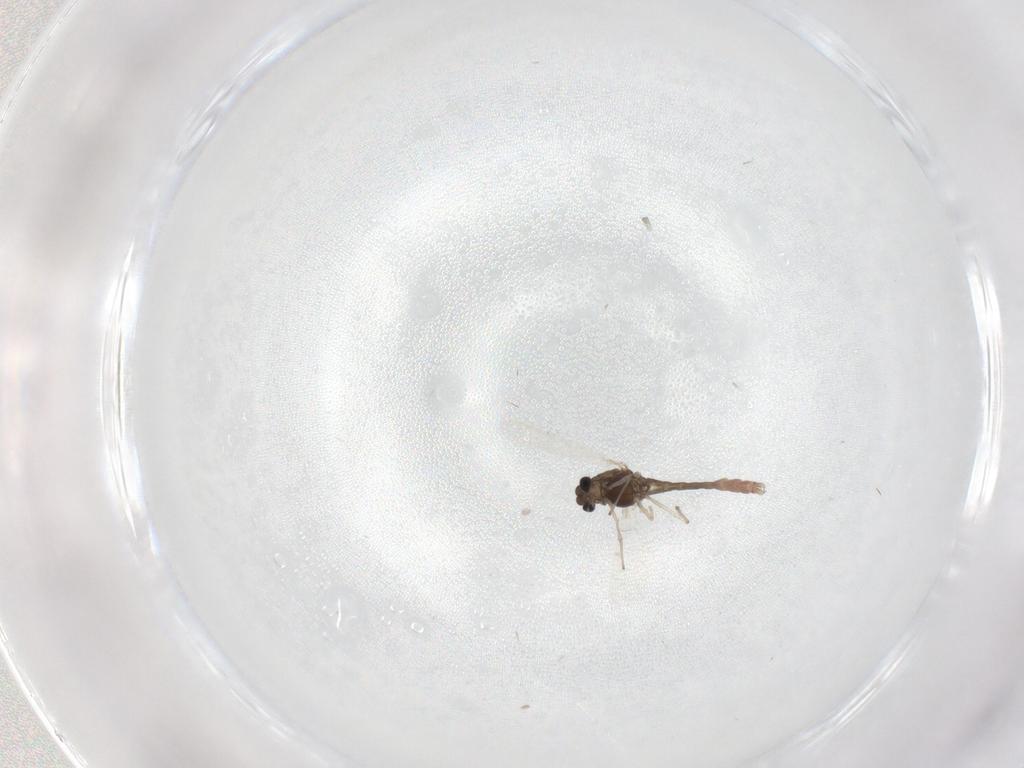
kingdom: Animalia
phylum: Arthropoda
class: Insecta
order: Diptera
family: Chironomidae
